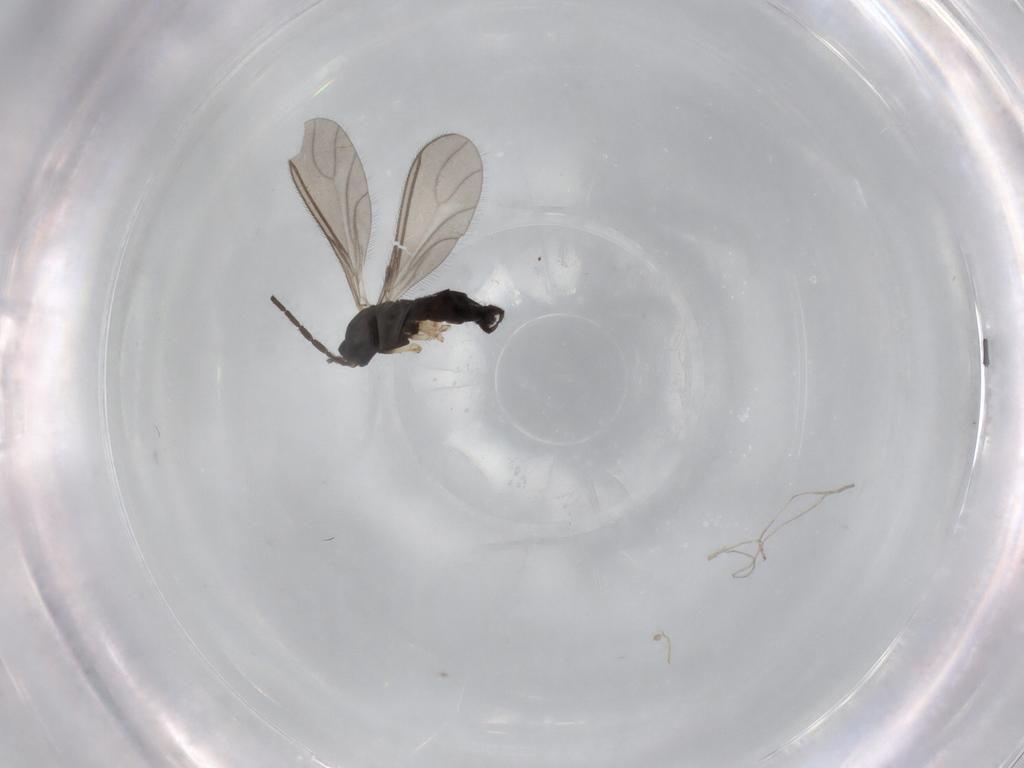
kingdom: Animalia
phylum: Arthropoda
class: Insecta
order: Diptera
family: Sciaridae
